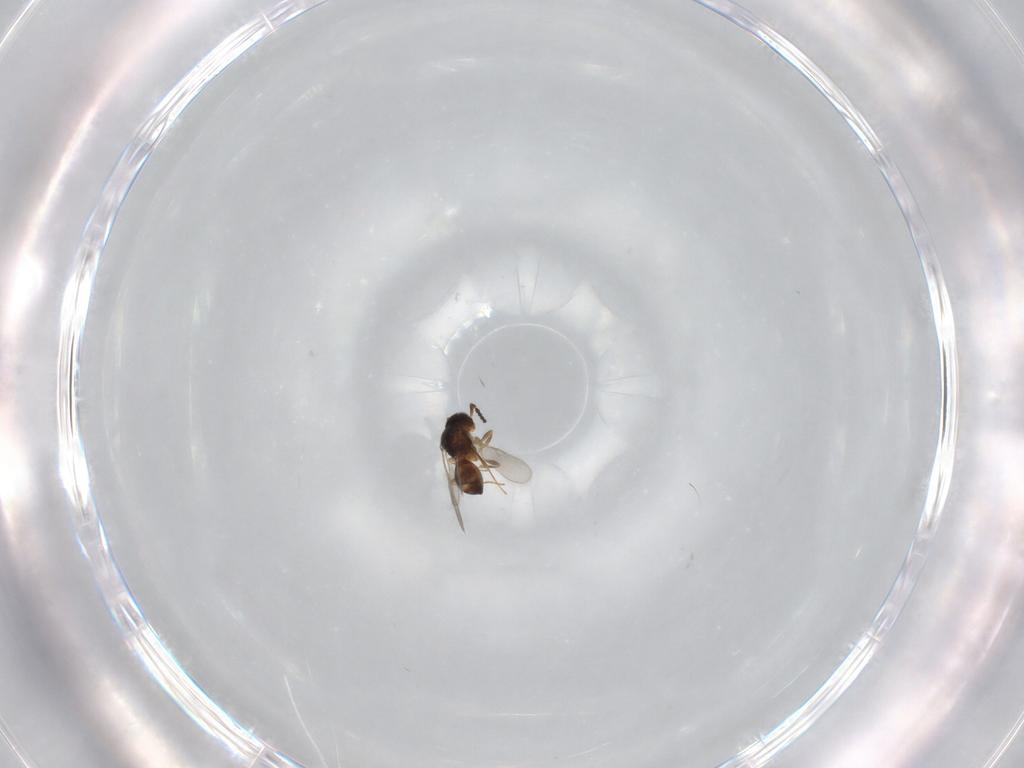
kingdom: Animalia
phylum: Arthropoda
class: Insecta
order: Hymenoptera
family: Scelionidae
